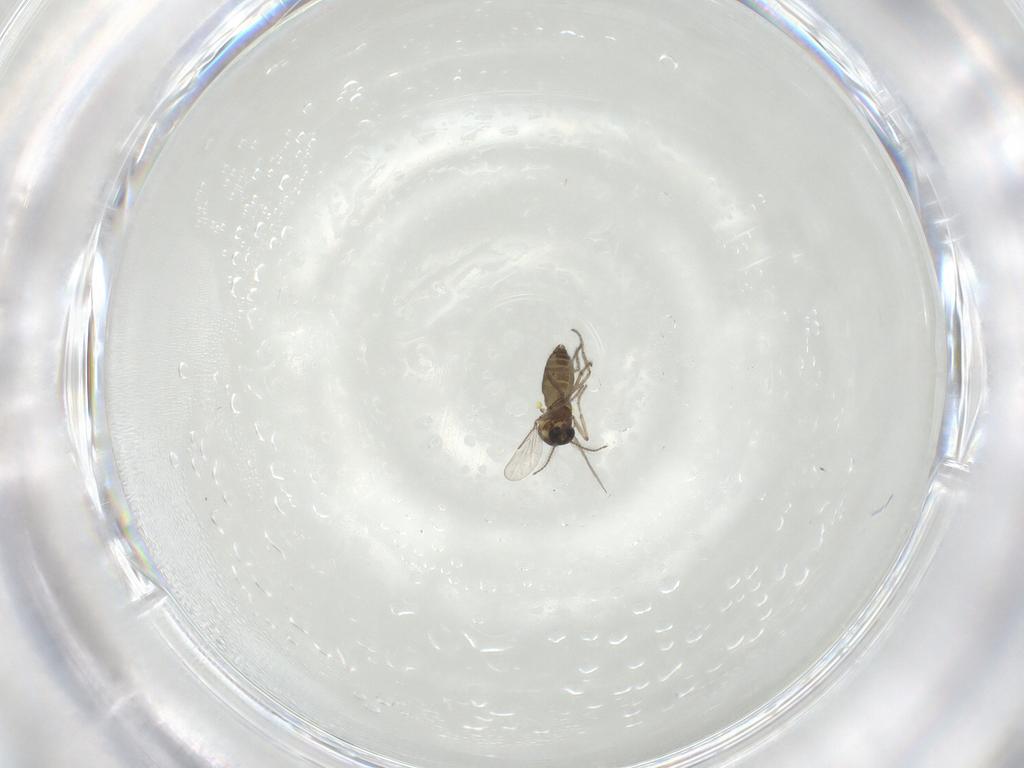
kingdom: Animalia
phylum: Arthropoda
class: Insecta
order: Diptera
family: Ceratopogonidae
